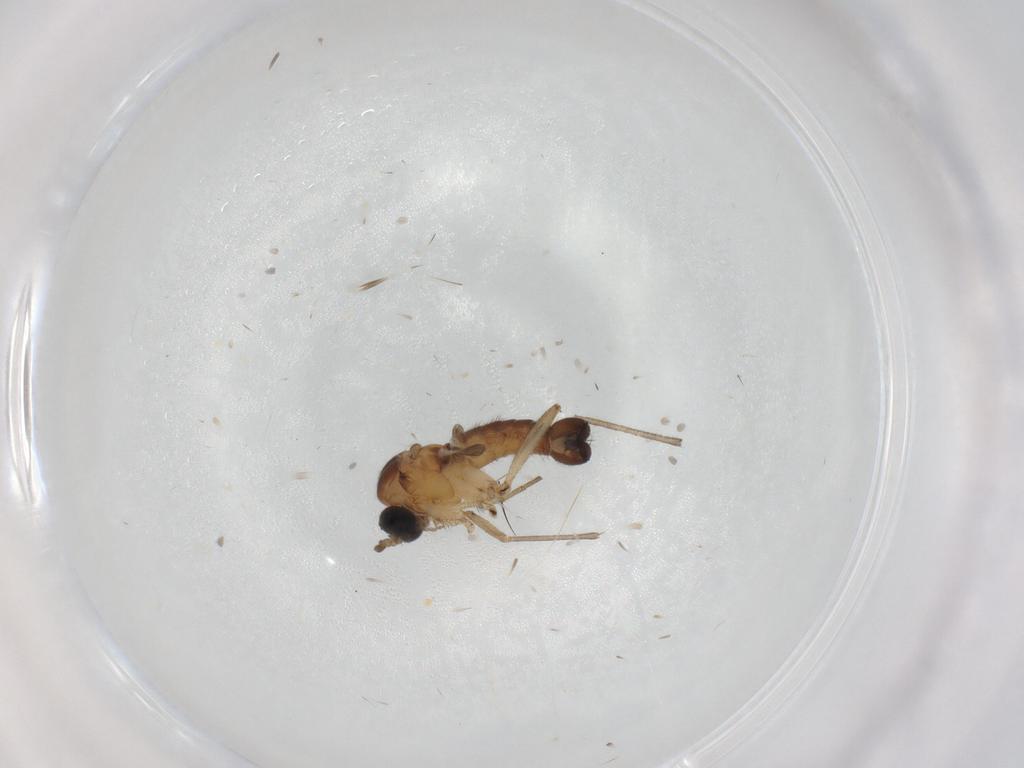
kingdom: Animalia
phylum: Arthropoda
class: Insecta
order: Diptera
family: Sciaridae
